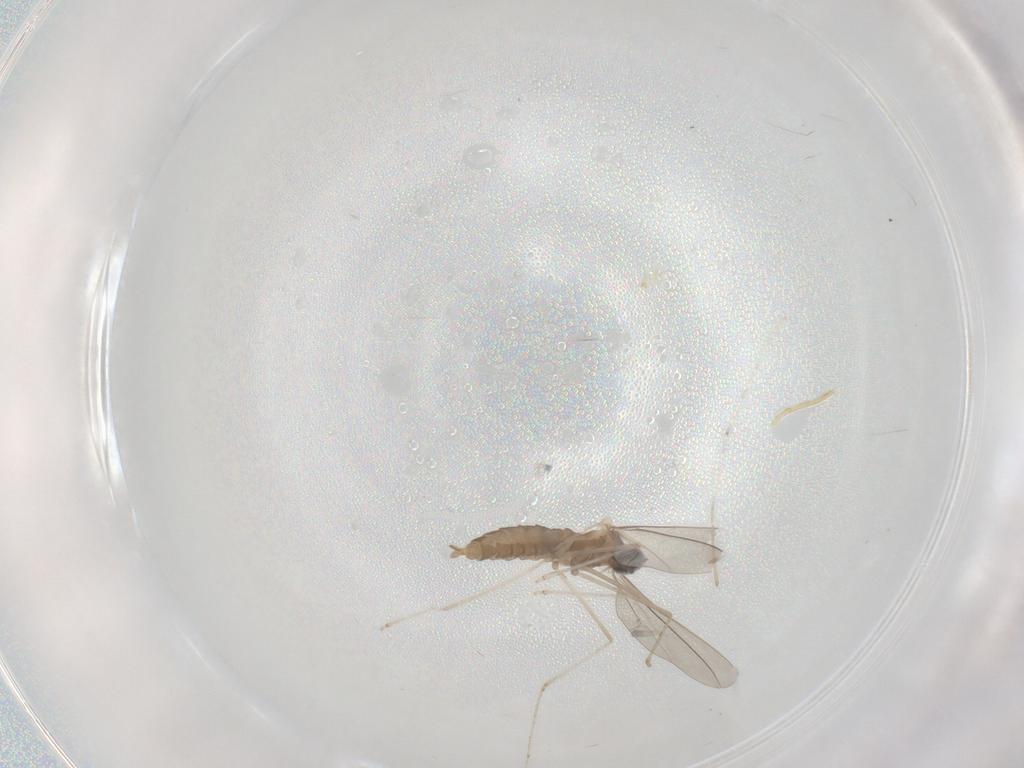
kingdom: Animalia
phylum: Arthropoda
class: Insecta
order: Diptera
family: Cecidomyiidae
